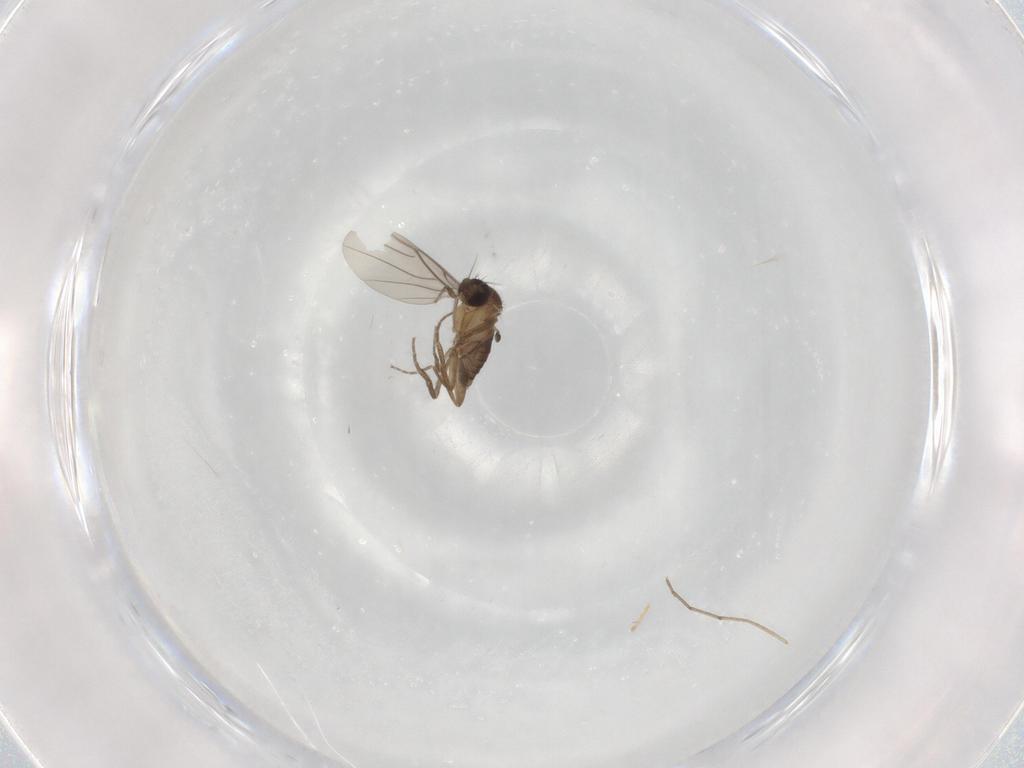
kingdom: Animalia
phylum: Arthropoda
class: Insecta
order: Diptera
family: Phoridae
